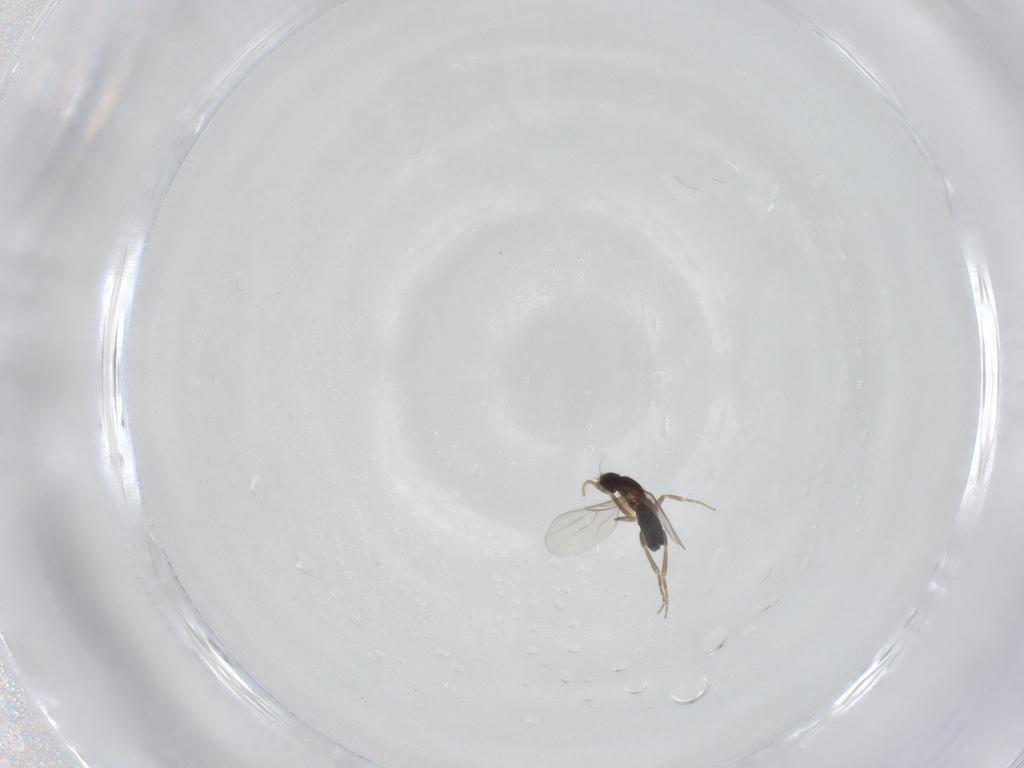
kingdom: Animalia
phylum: Arthropoda
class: Insecta
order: Diptera
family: Phoridae
